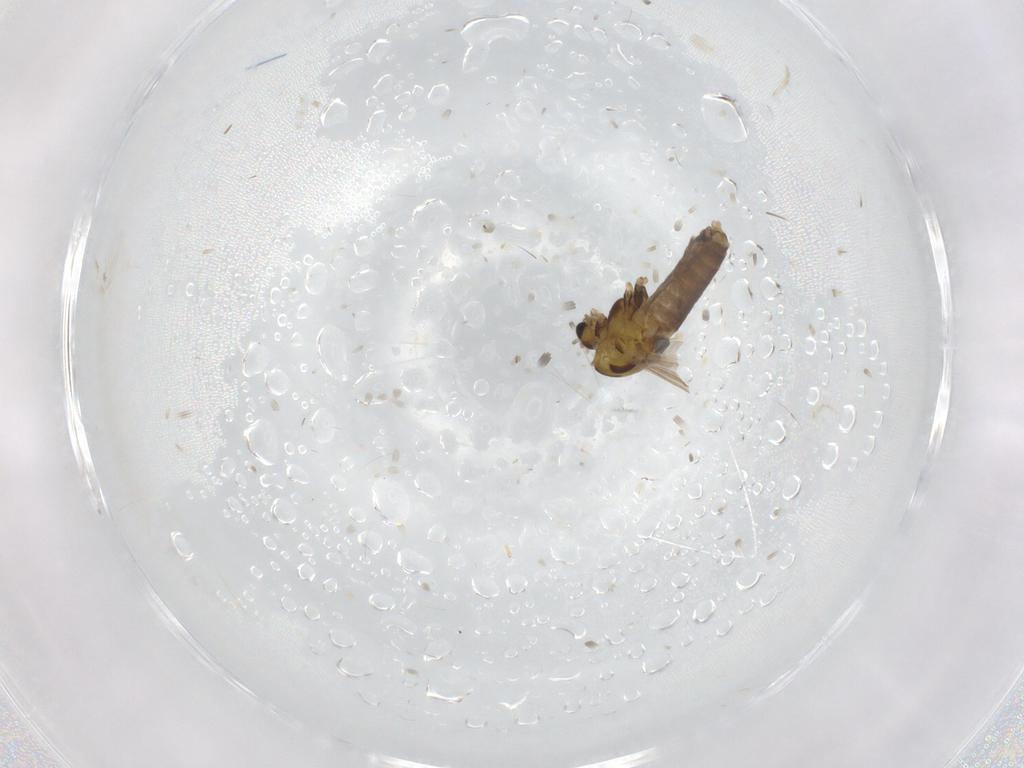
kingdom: Animalia
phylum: Arthropoda
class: Insecta
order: Diptera
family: Chironomidae
